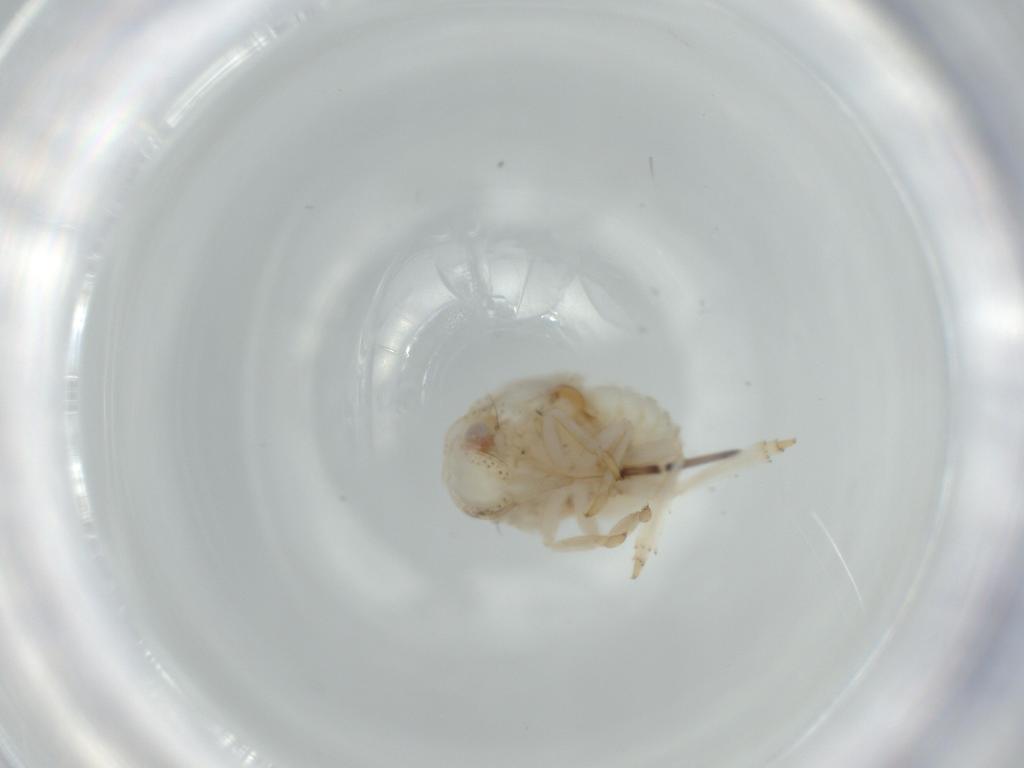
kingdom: Animalia
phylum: Arthropoda
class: Insecta
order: Hemiptera
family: Acanaloniidae
